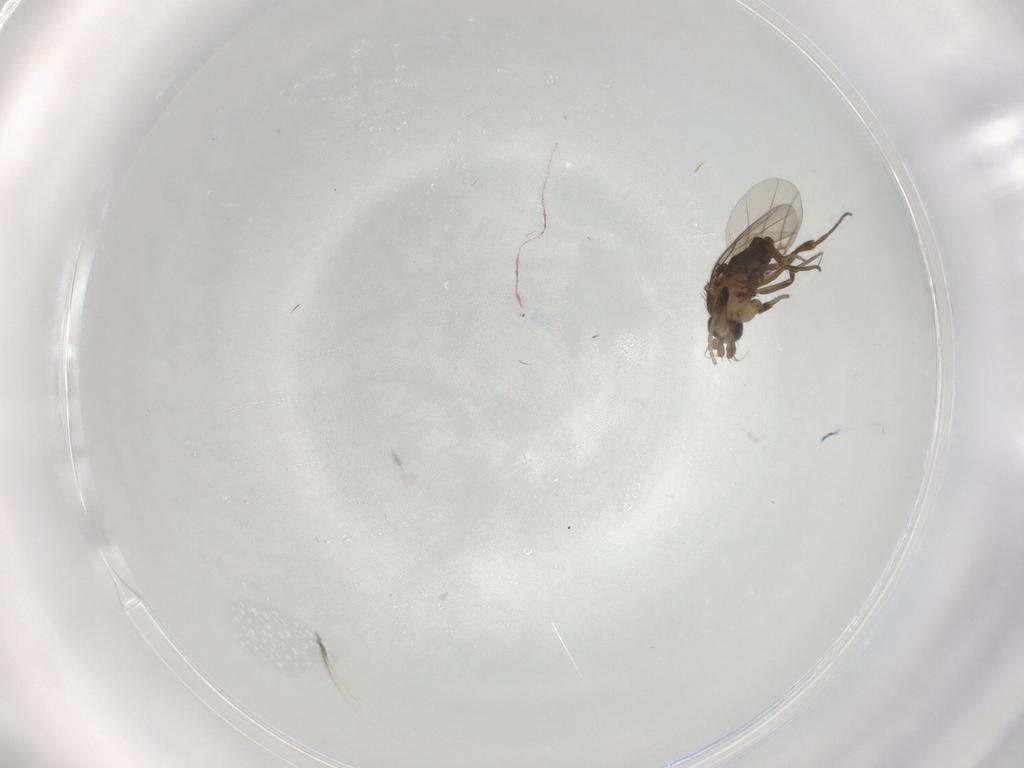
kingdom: Animalia
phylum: Arthropoda
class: Insecta
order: Diptera
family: Phoridae
